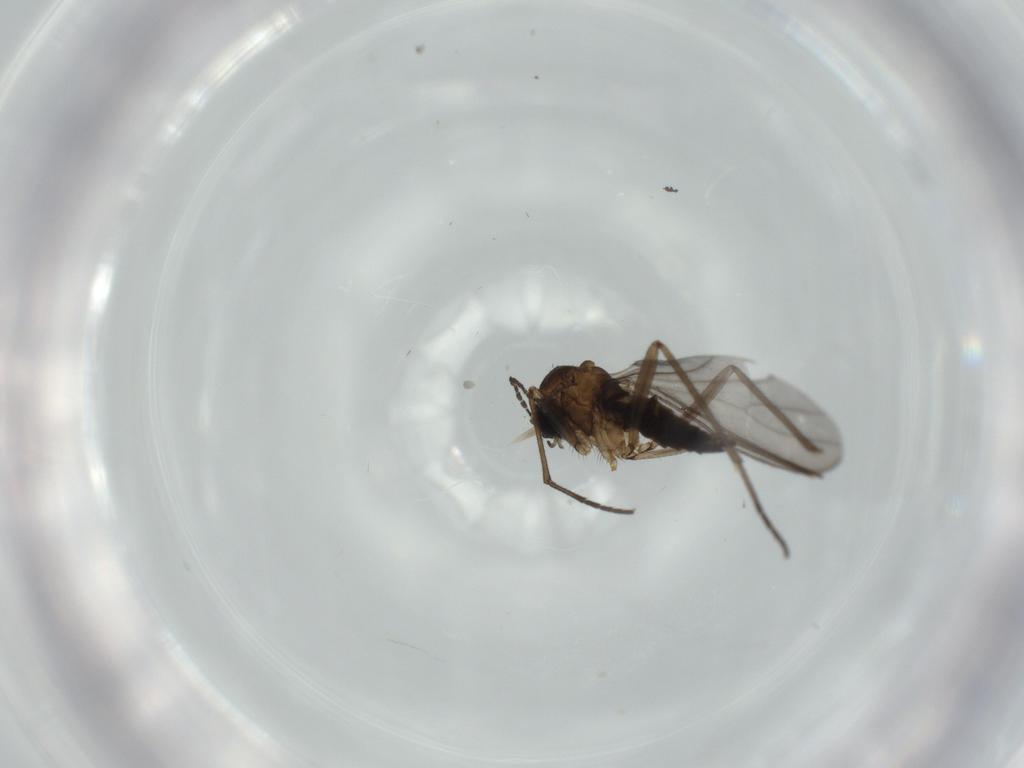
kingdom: Animalia
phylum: Arthropoda
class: Insecta
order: Diptera
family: Sciaridae
